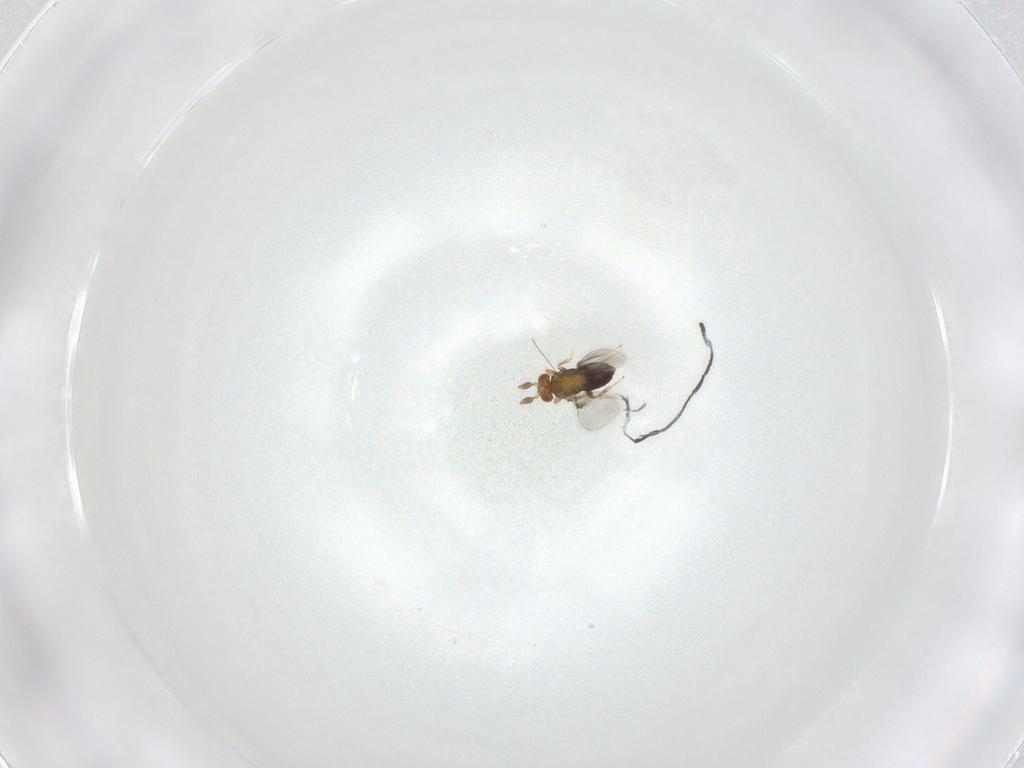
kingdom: Animalia
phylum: Arthropoda
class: Insecta
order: Hymenoptera
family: Trichogrammatidae
